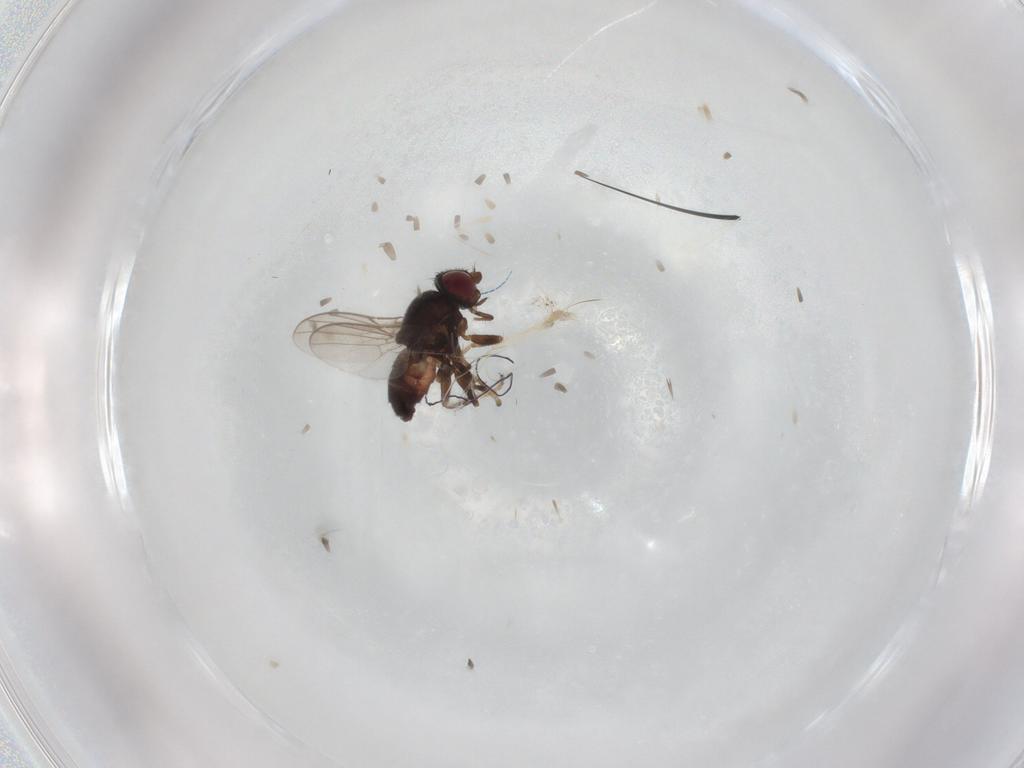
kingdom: Animalia
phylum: Arthropoda
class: Insecta
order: Diptera
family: Chloropidae
